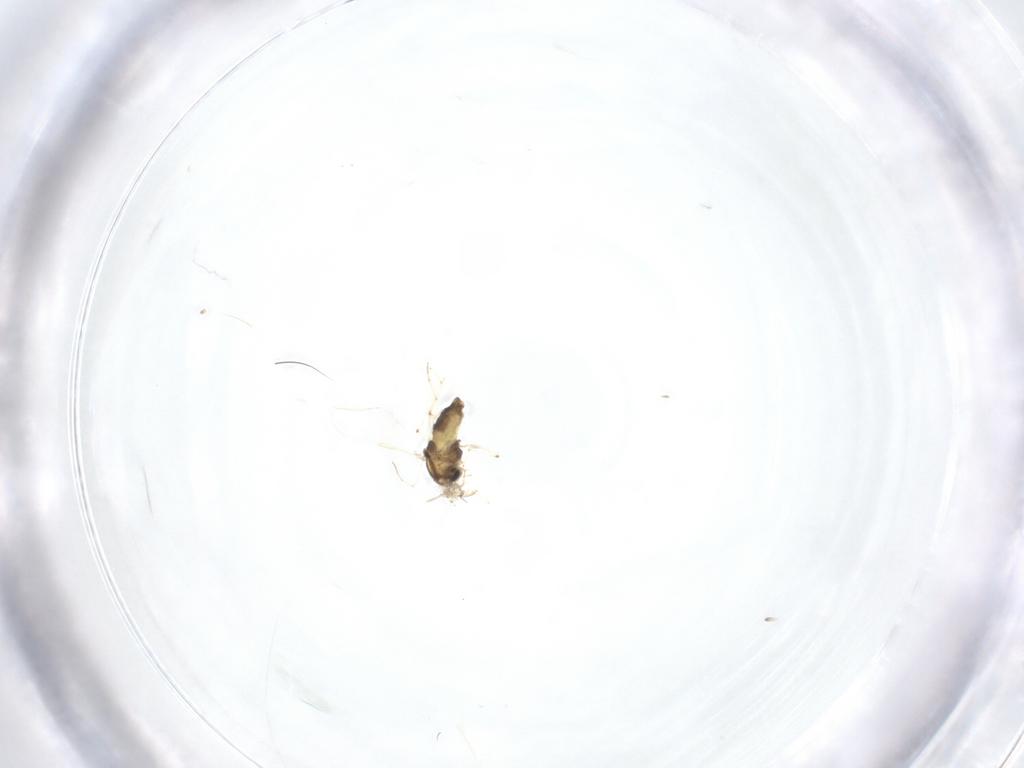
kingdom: Animalia
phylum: Arthropoda
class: Insecta
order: Diptera
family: Chironomidae
